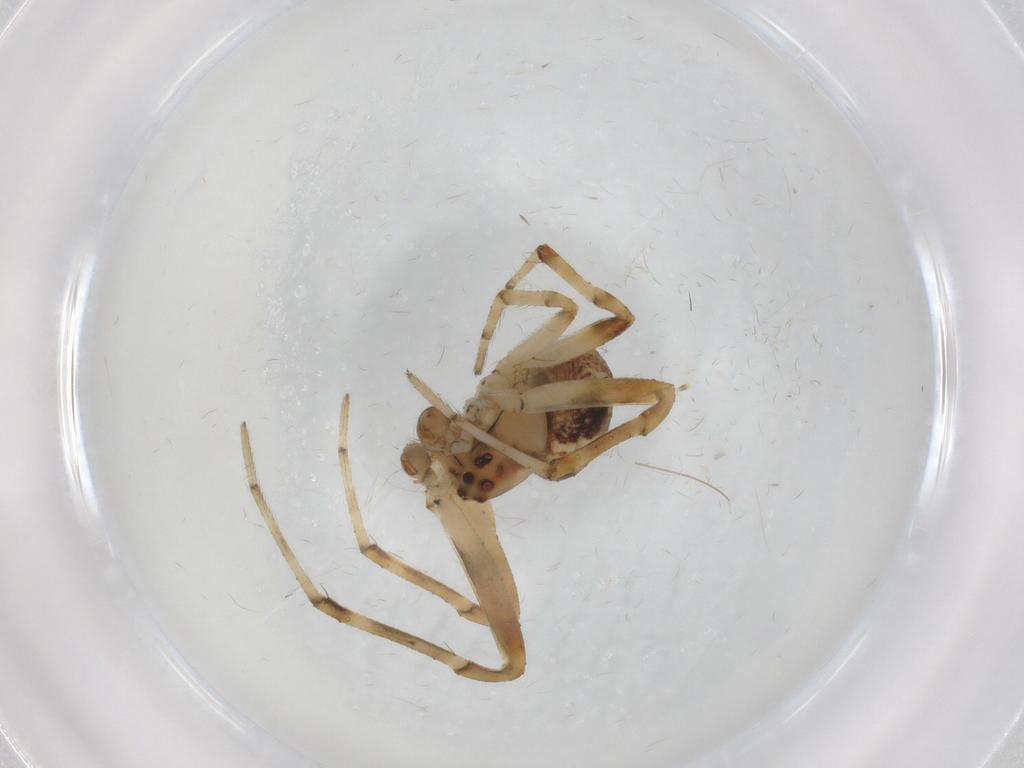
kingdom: Animalia
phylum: Arthropoda
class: Arachnida
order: Araneae
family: Araneidae
